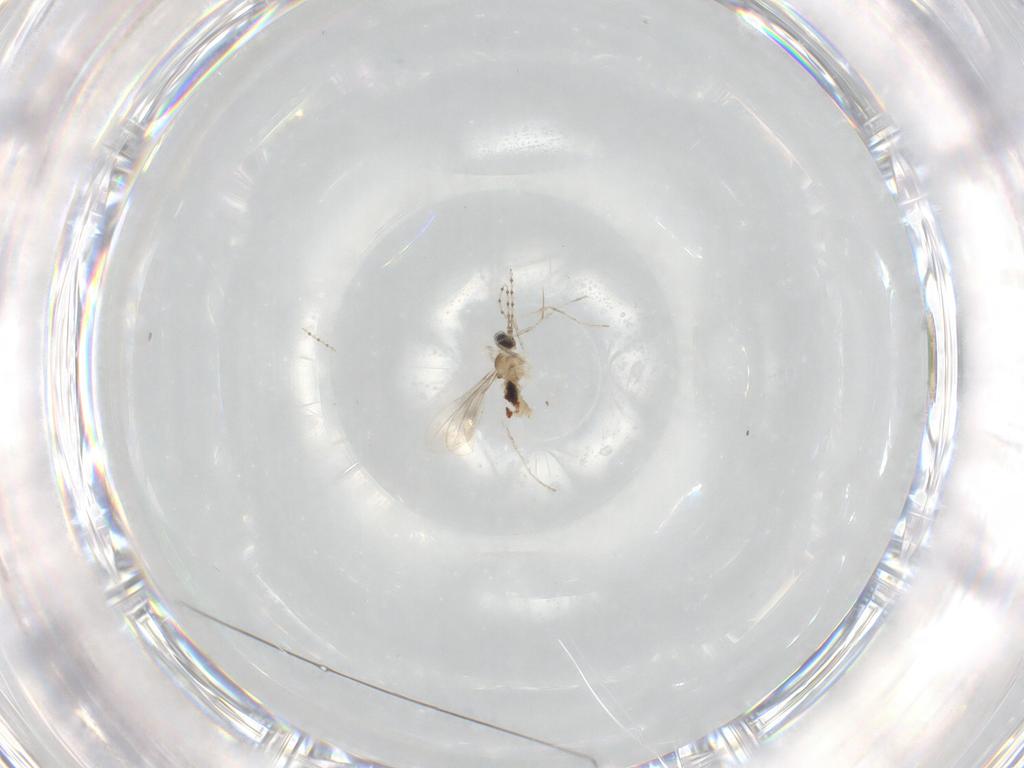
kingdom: Animalia
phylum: Arthropoda
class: Insecta
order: Diptera
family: Cecidomyiidae
